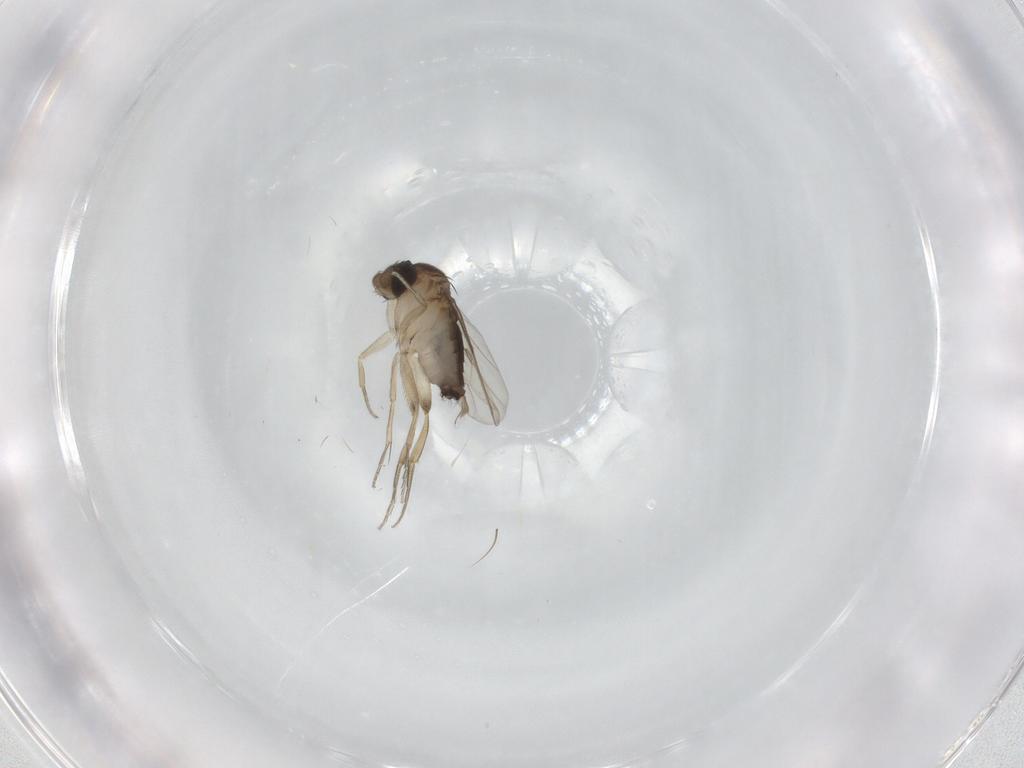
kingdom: Animalia
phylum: Arthropoda
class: Insecta
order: Diptera
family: Phoridae
